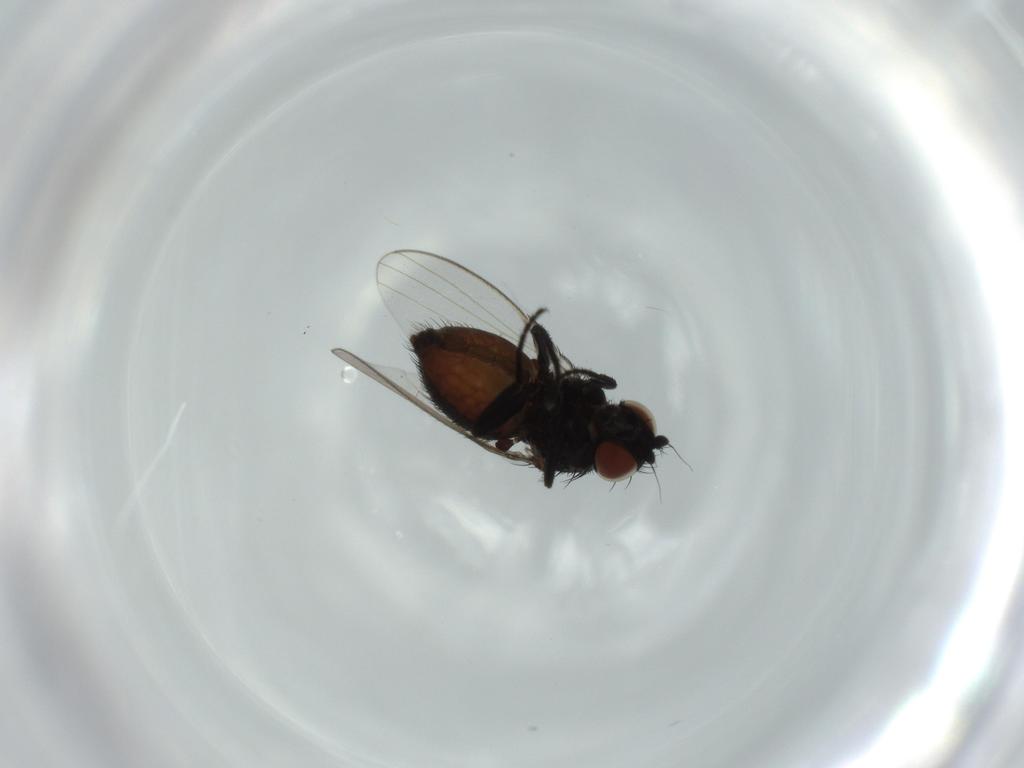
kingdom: Animalia
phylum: Arthropoda
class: Insecta
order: Diptera
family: Milichiidae
